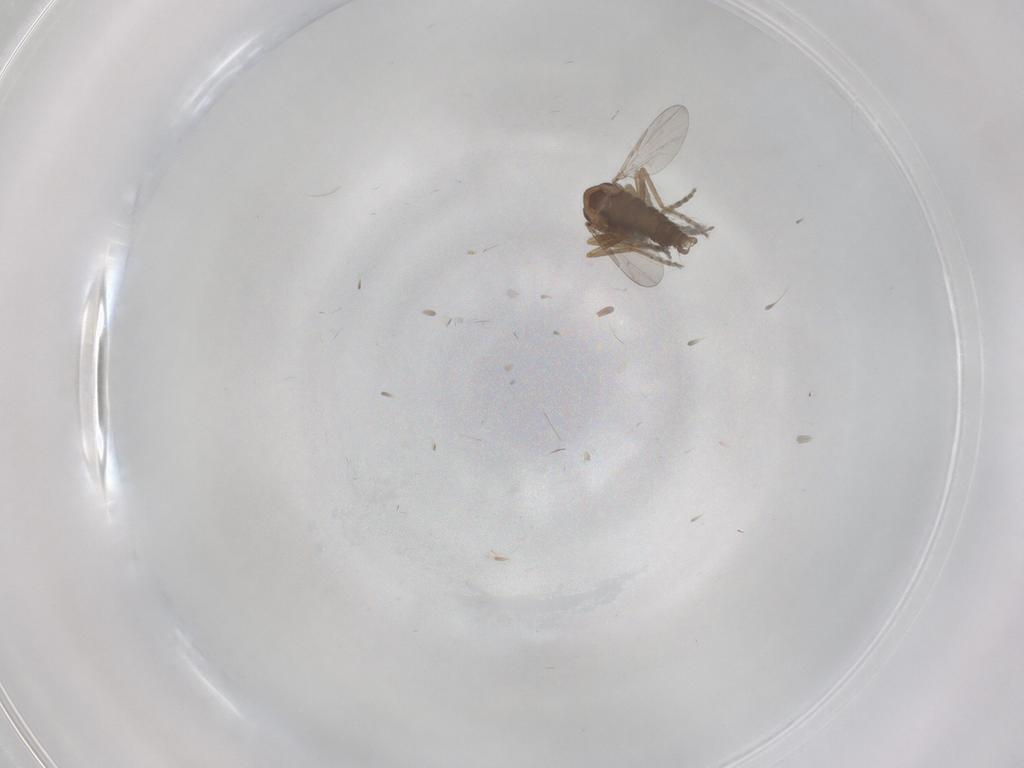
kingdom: Animalia
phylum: Arthropoda
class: Insecta
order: Diptera
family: Ceratopogonidae
